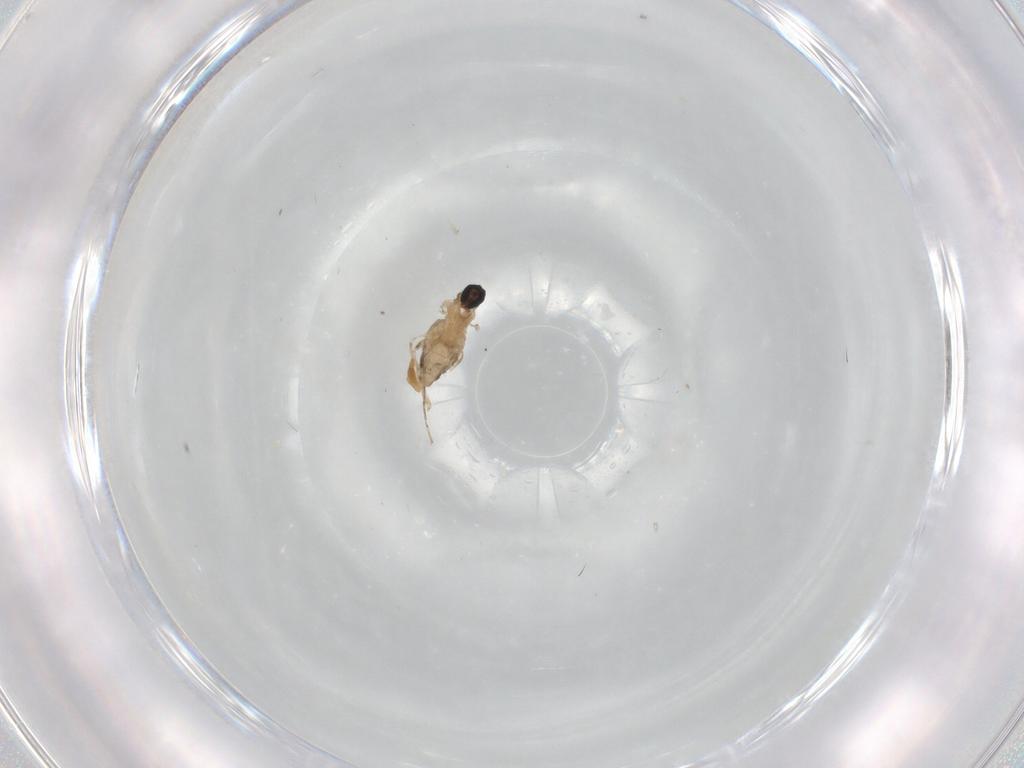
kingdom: Animalia
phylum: Arthropoda
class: Insecta
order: Diptera
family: Cecidomyiidae
